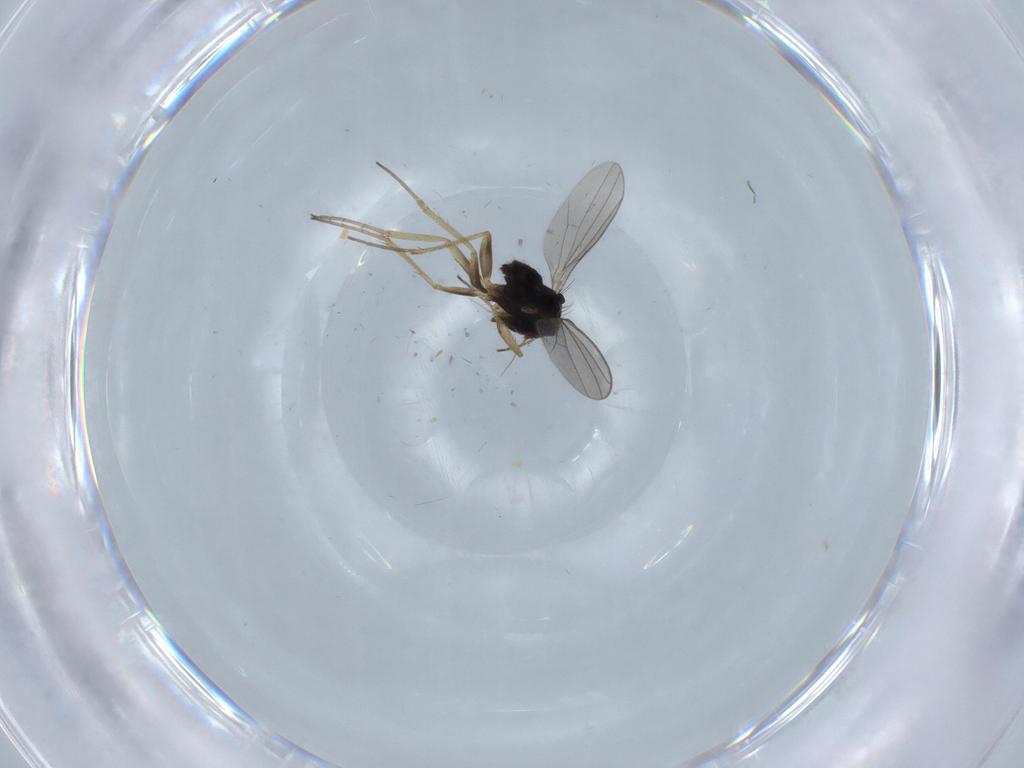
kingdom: Animalia
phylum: Arthropoda
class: Insecta
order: Diptera
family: Dolichopodidae
